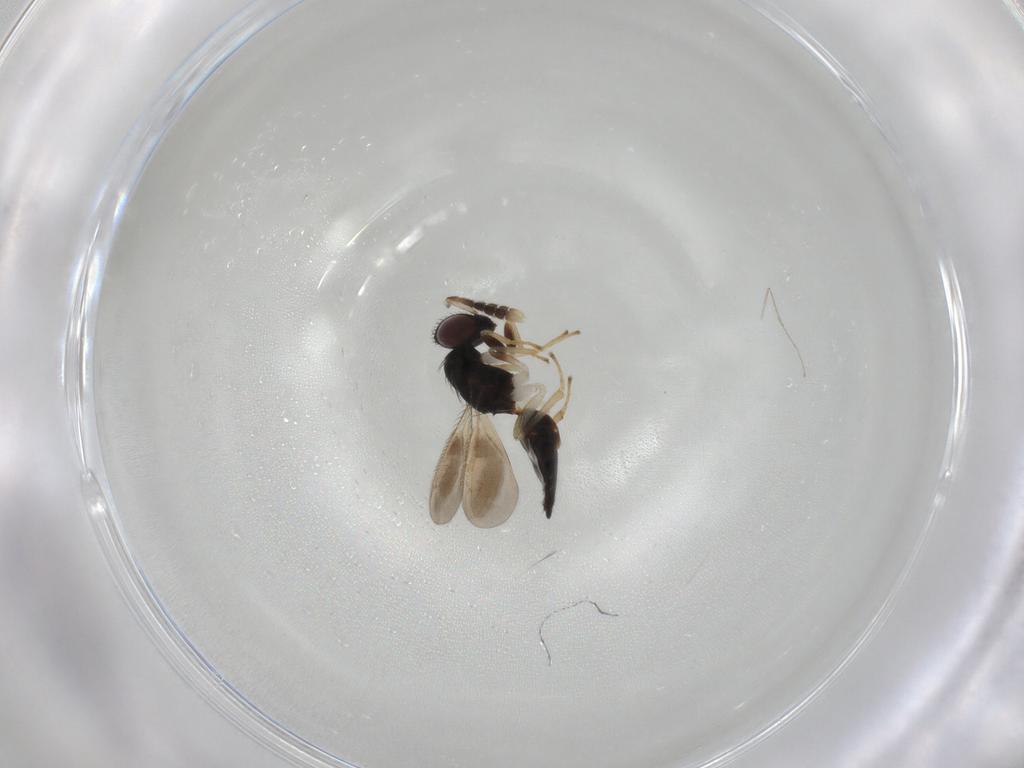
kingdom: Animalia
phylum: Arthropoda
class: Insecta
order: Hymenoptera
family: Eulophidae
